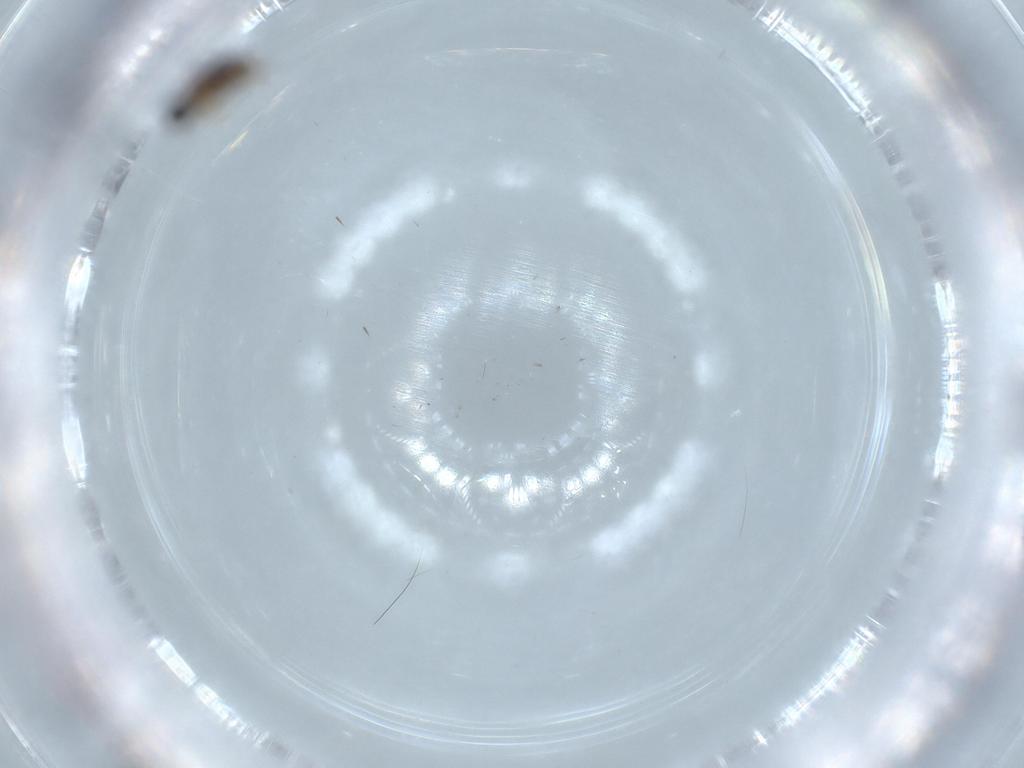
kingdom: Animalia
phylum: Arthropoda
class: Insecta
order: Diptera
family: Cecidomyiidae
